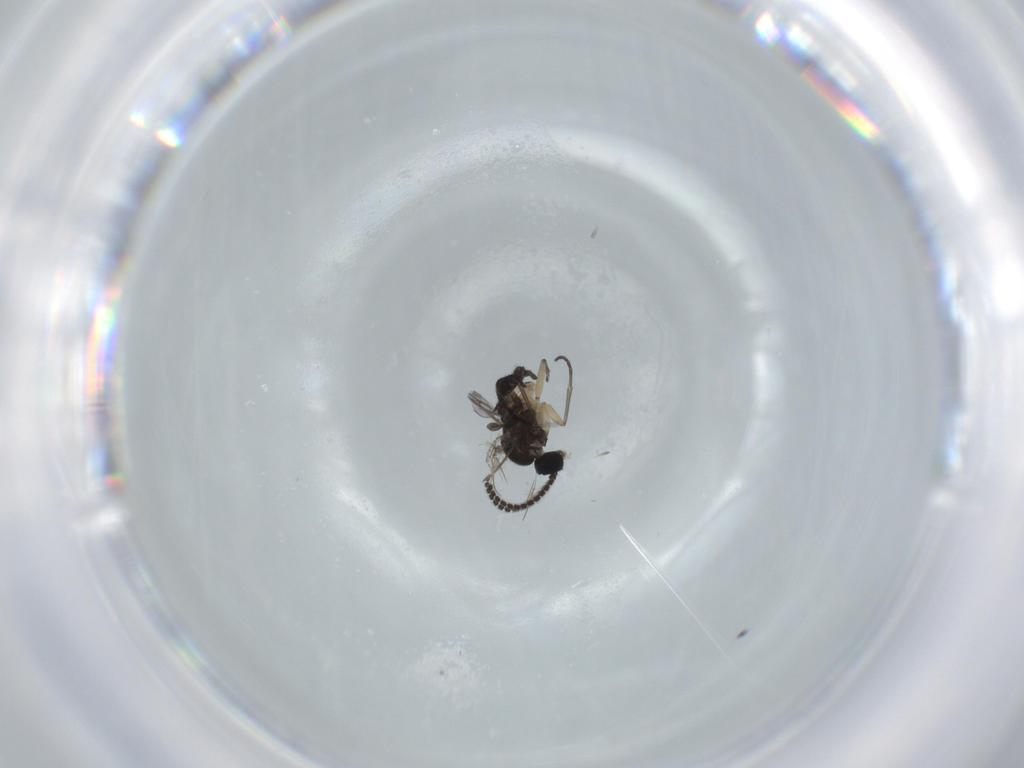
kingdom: Animalia
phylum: Arthropoda
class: Insecta
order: Diptera
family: Sciaridae
